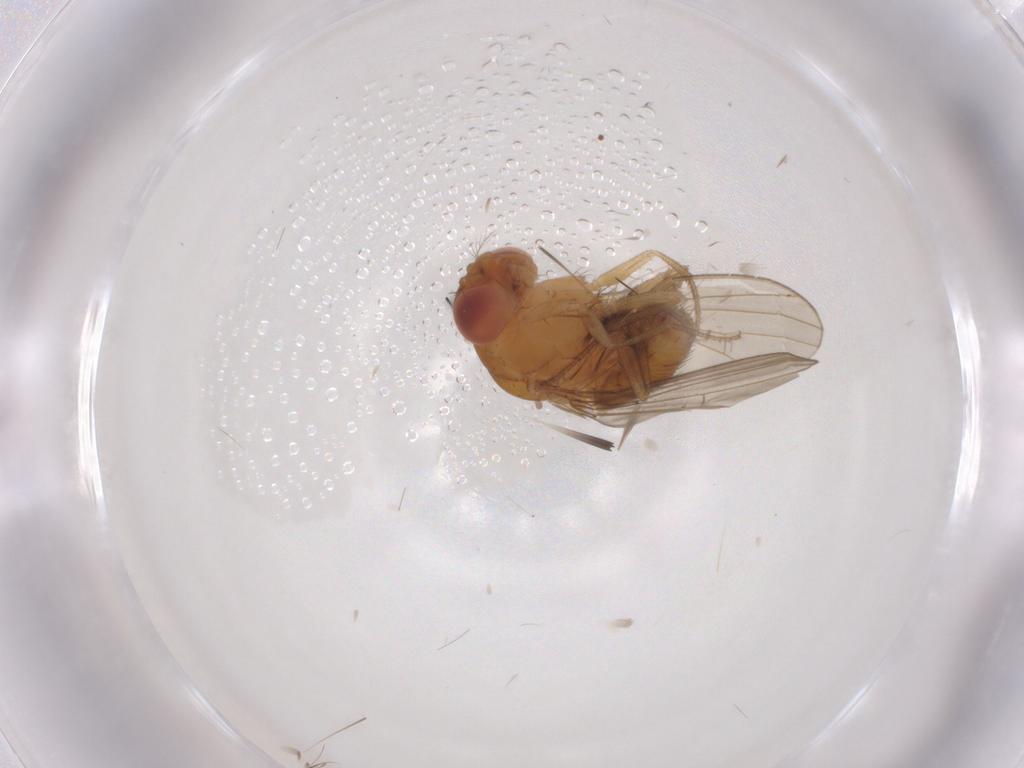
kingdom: Animalia
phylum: Arthropoda
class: Insecta
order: Diptera
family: Drosophilidae
